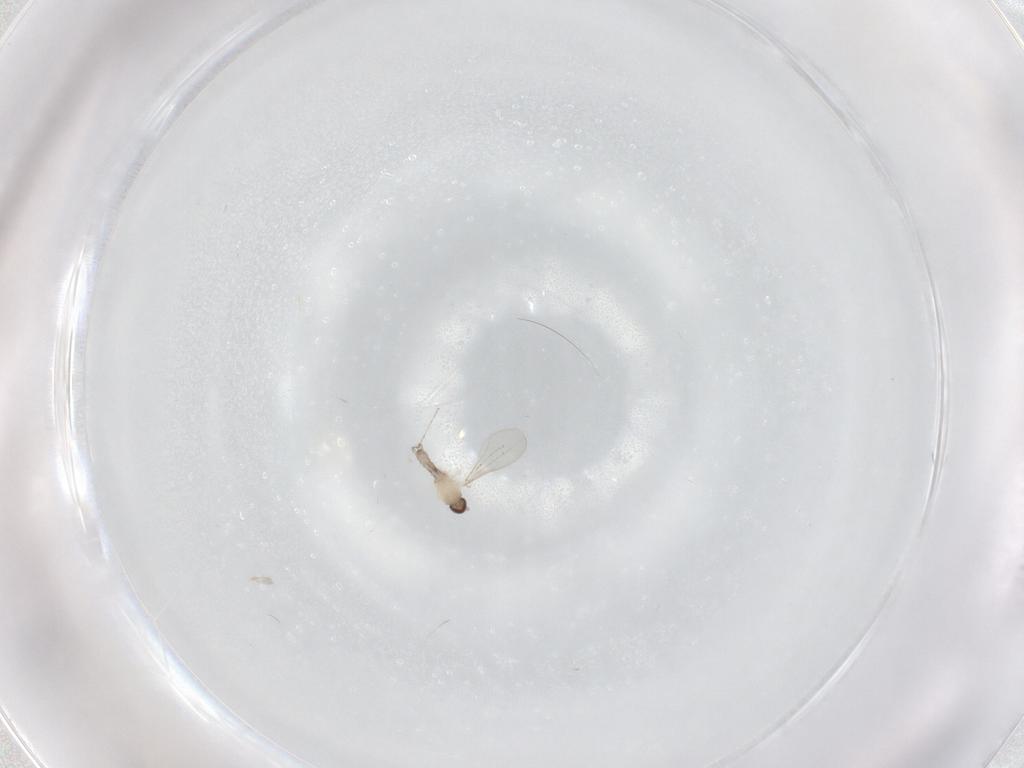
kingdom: Animalia
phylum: Arthropoda
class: Insecta
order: Diptera
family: Cecidomyiidae
